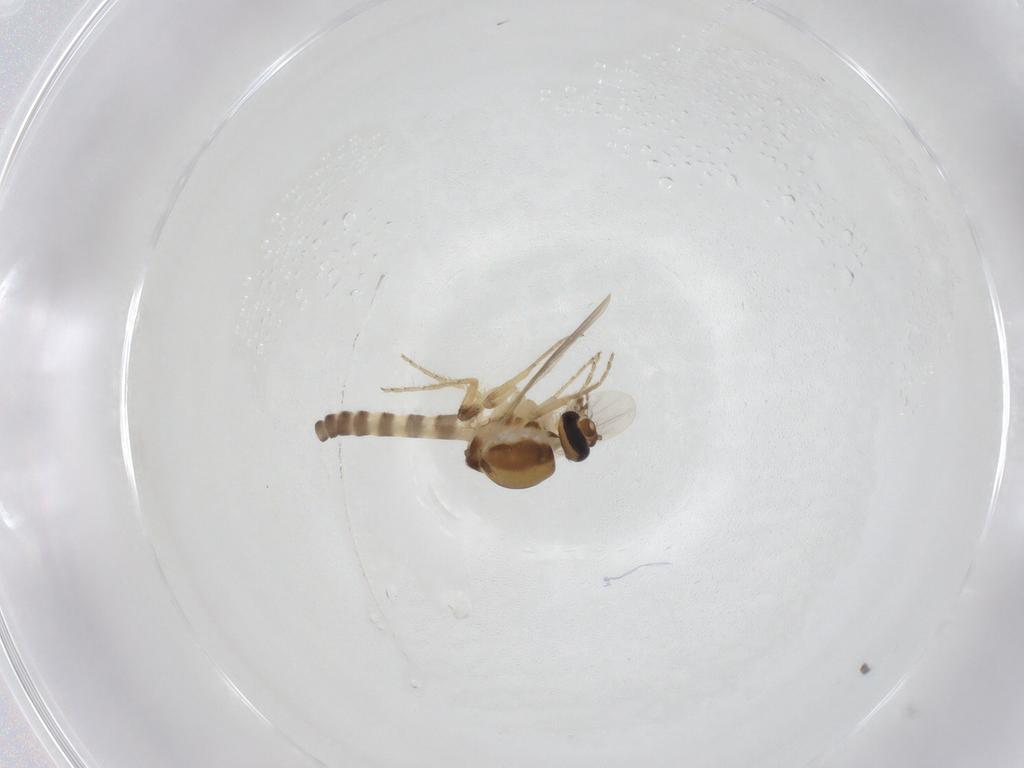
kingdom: Animalia
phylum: Arthropoda
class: Insecta
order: Diptera
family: Ceratopogonidae
